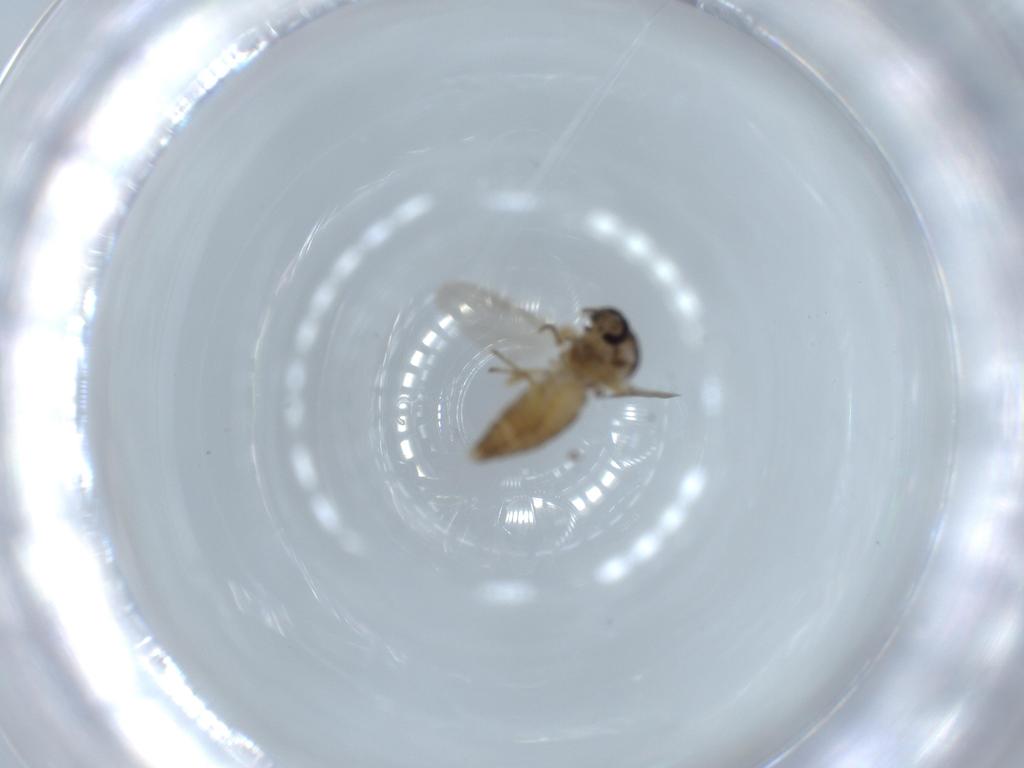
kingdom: Animalia
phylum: Arthropoda
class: Insecta
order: Diptera
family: Ceratopogonidae
